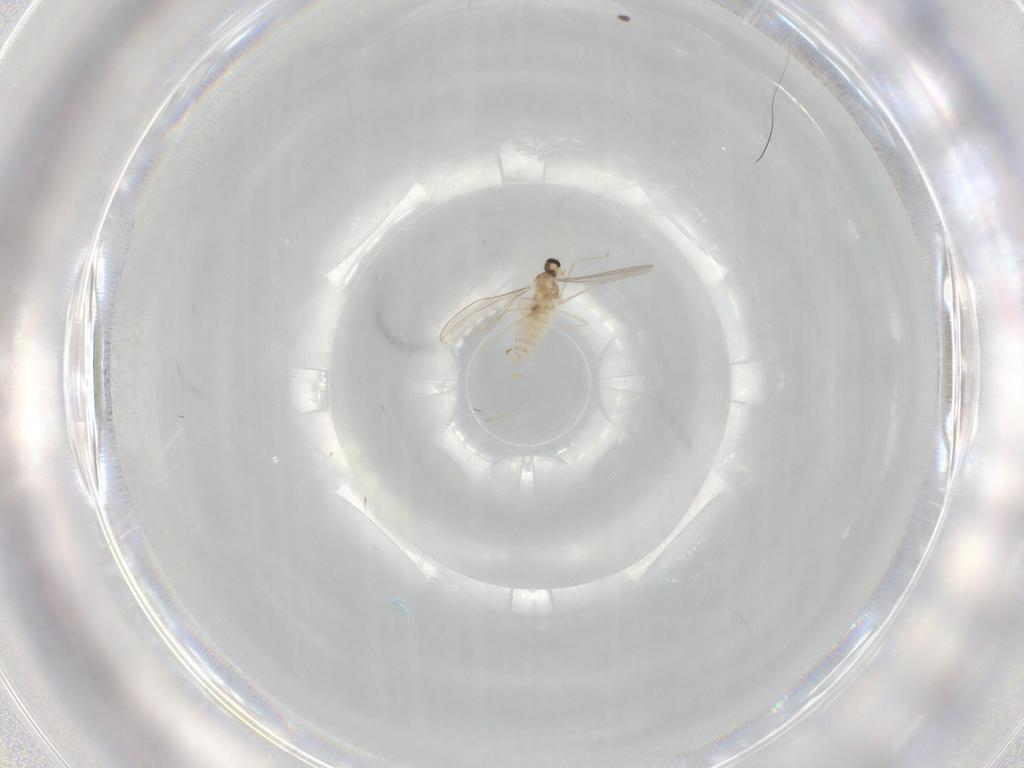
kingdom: Animalia
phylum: Arthropoda
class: Insecta
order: Diptera
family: Cecidomyiidae
